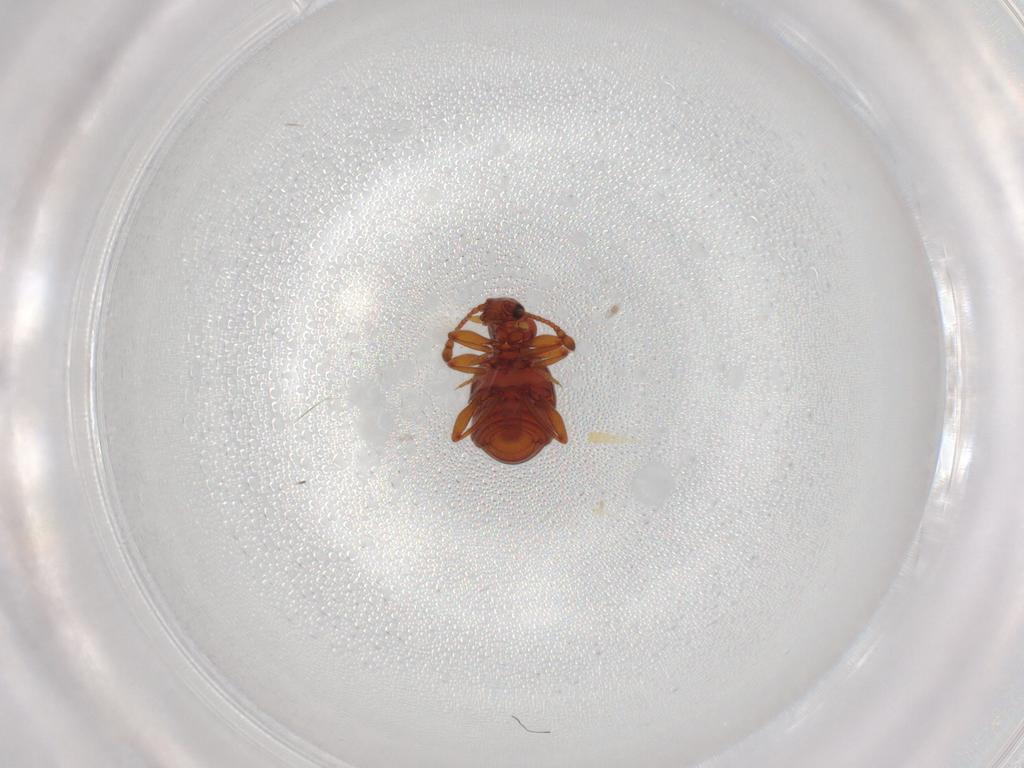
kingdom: Animalia
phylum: Arthropoda
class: Insecta
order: Coleoptera
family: Staphylinidae
